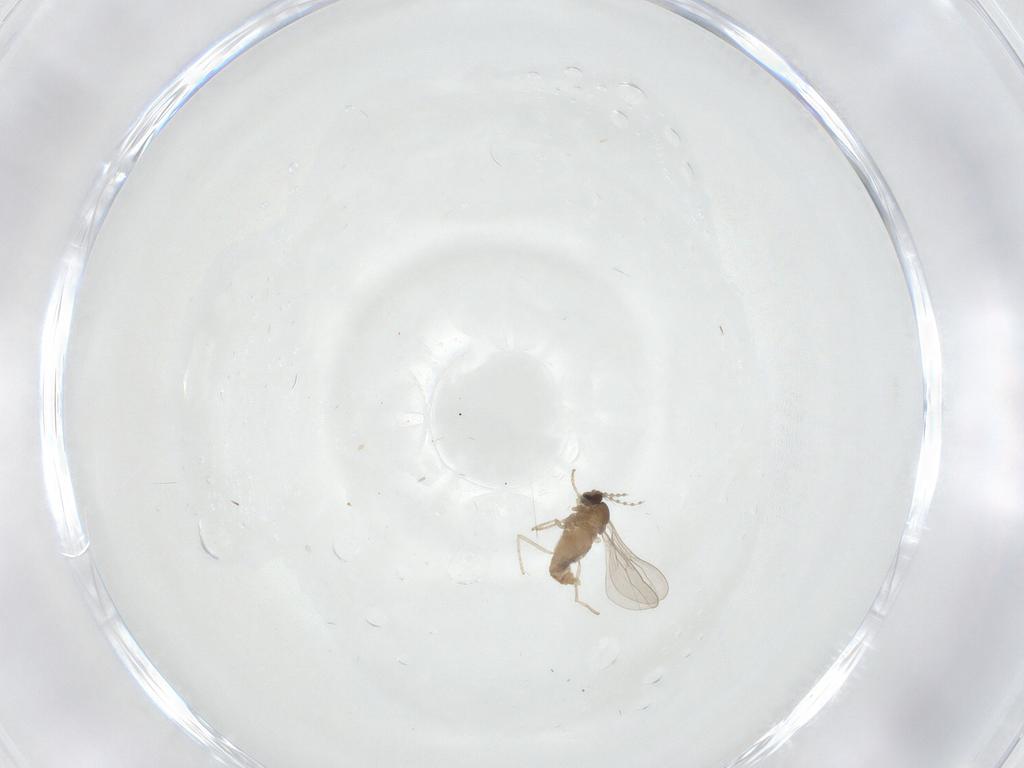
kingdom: Animalia
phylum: Arthropoda
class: Insecta
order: Diptera
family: Cecidomyiidae
